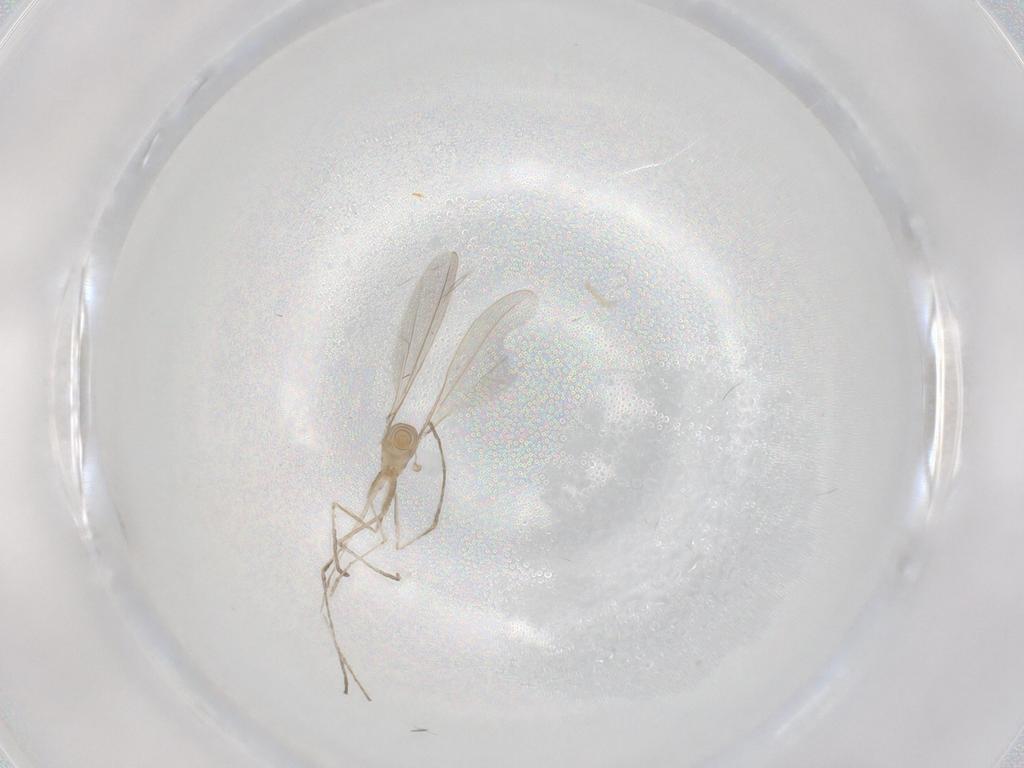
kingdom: Animalia
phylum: Arthropoda
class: Insecta
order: Diptera
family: Cecidomyiidae
